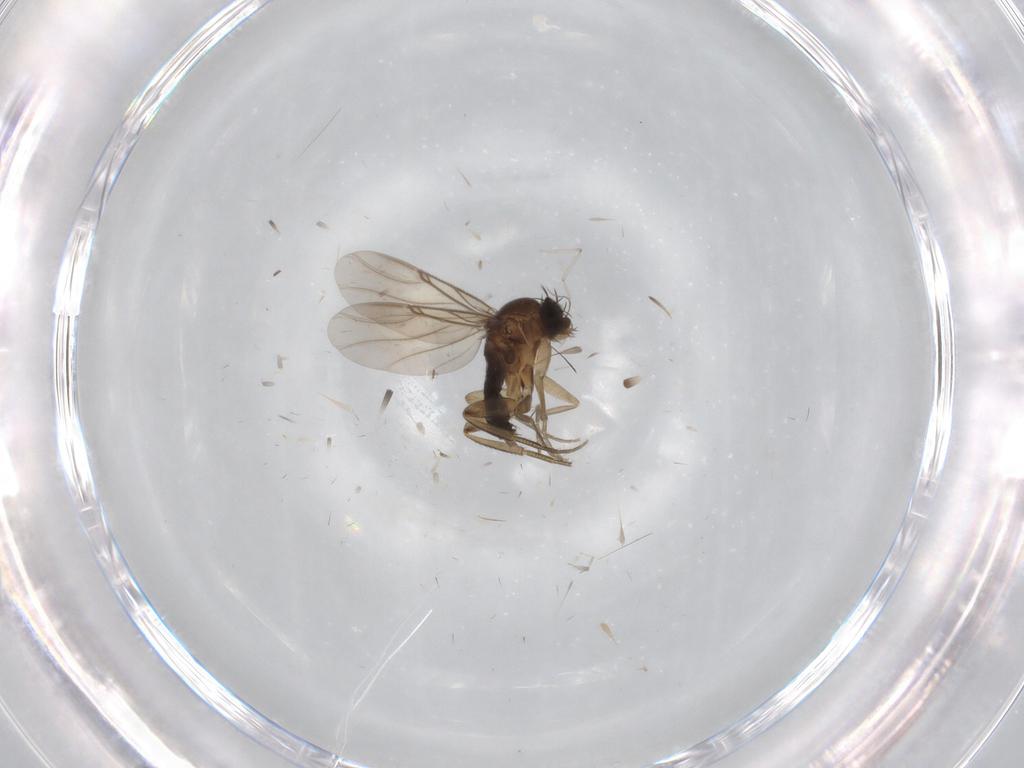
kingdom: Animalia
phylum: Arthropoda
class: Insecta
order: Diptera
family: Cecidomyiidae
